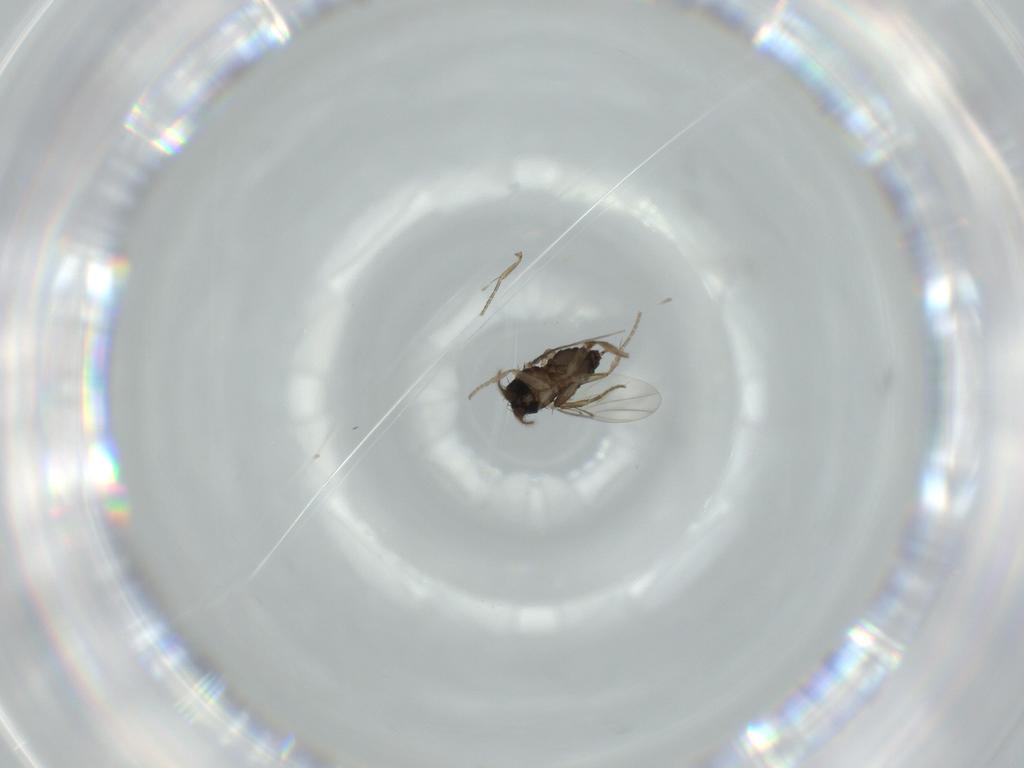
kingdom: Animalia
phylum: Arthropoda
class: Insecta
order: Diptera
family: Phoridae
